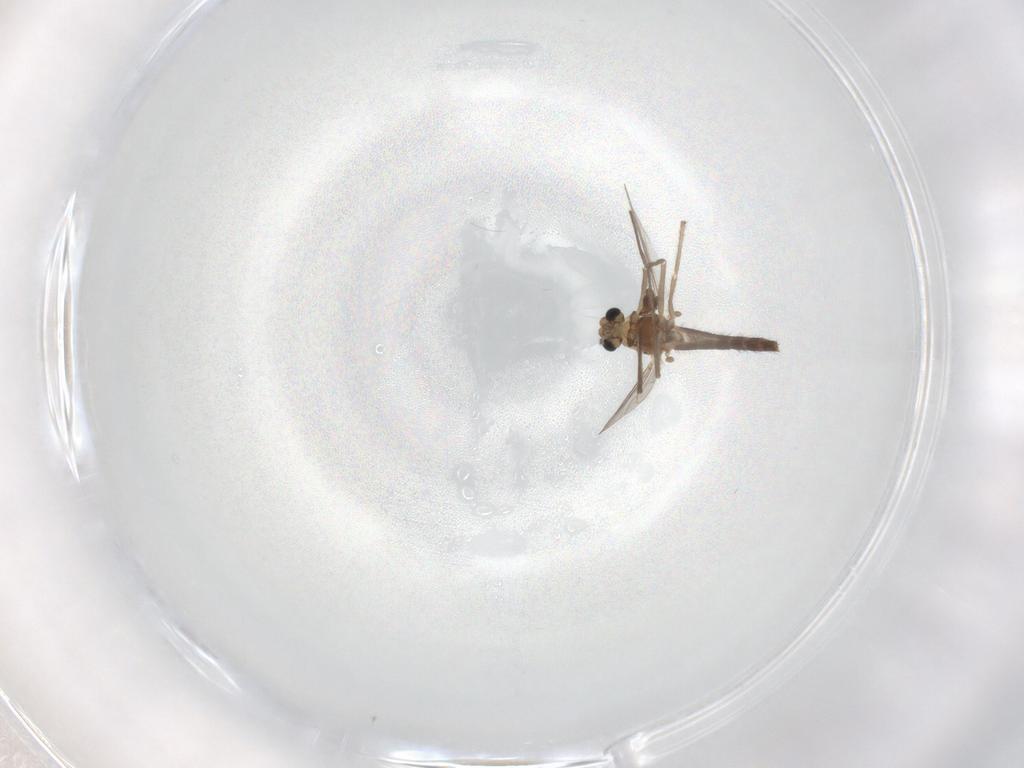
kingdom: Animalia
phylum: Arthropoda
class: Insecta
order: Diptera
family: Chironomidae
